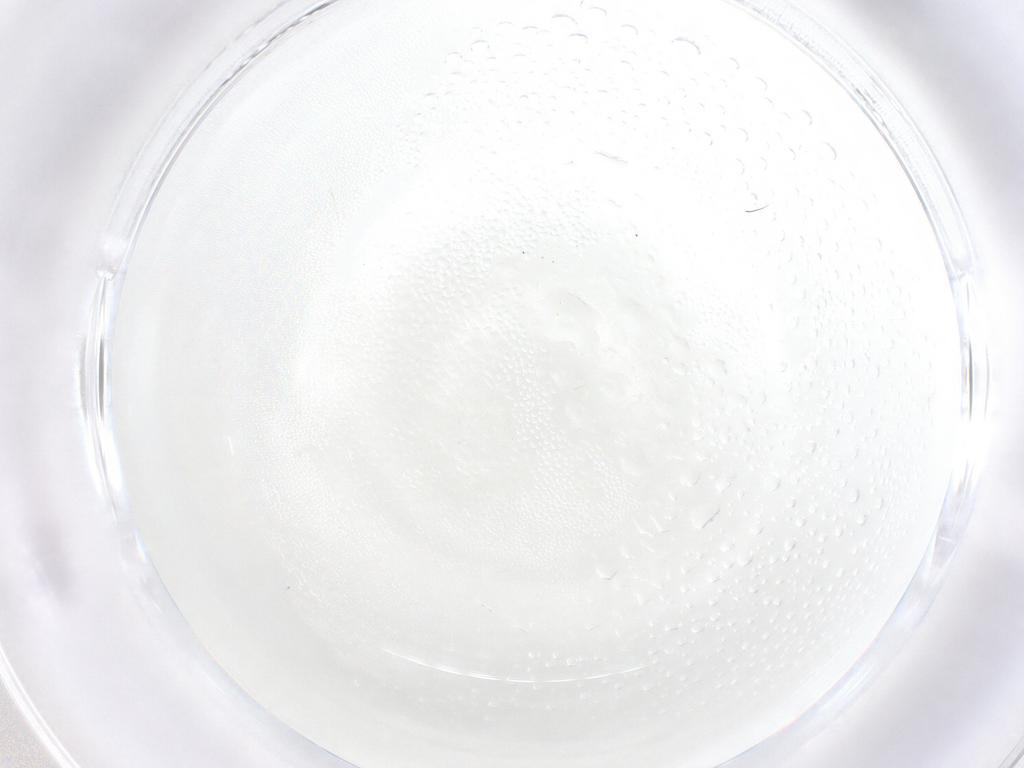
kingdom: Animalia
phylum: Arthropoda
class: Insecta
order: Diptera
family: Cecidomyiidae
